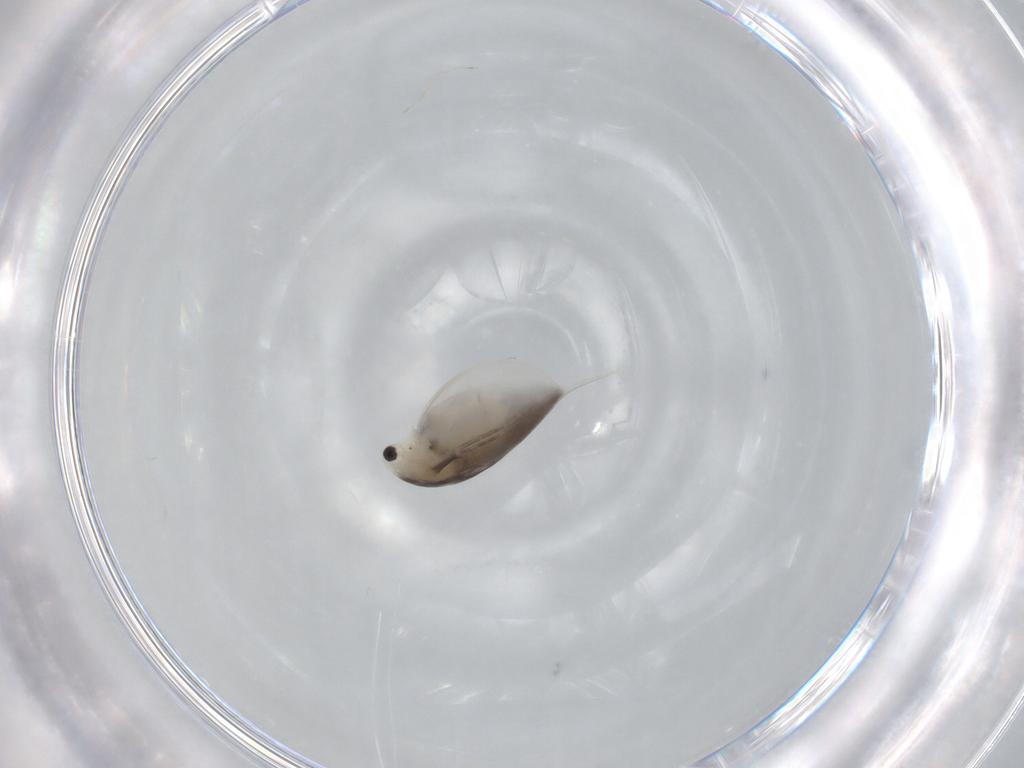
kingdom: Animalia
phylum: Arthropoda
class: Branchiopoda
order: Diplostraca
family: Daphniidae
